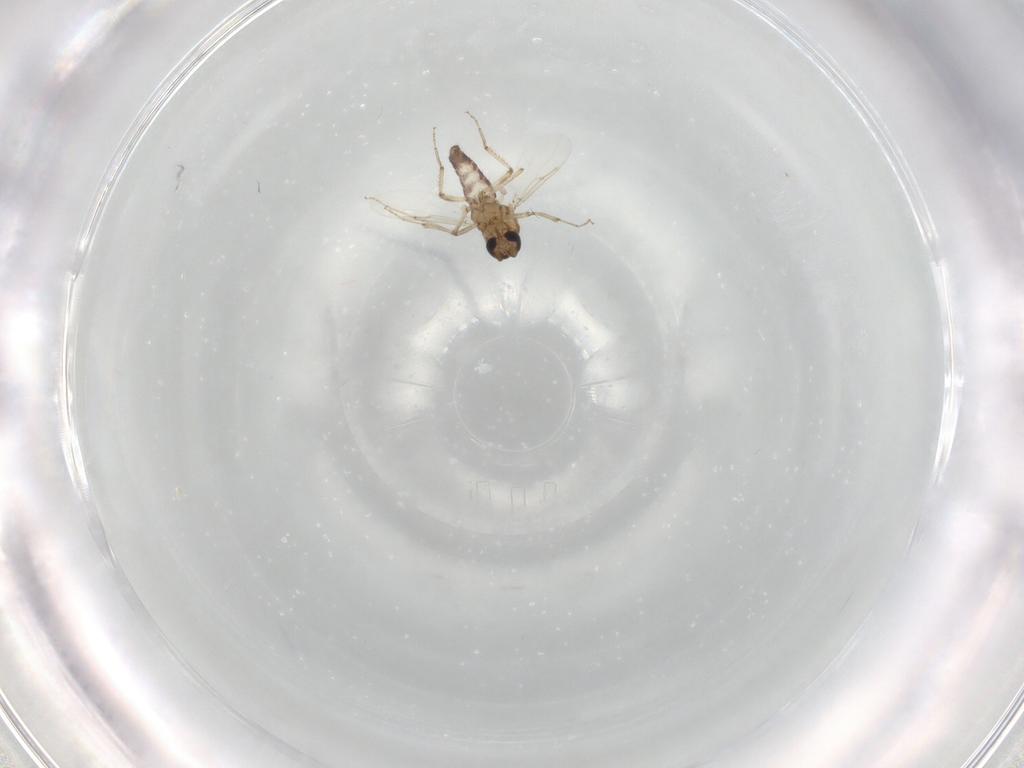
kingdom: Animalia
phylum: Arthropoda
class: Insecta
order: Diptera
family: Ceratopogonidae
